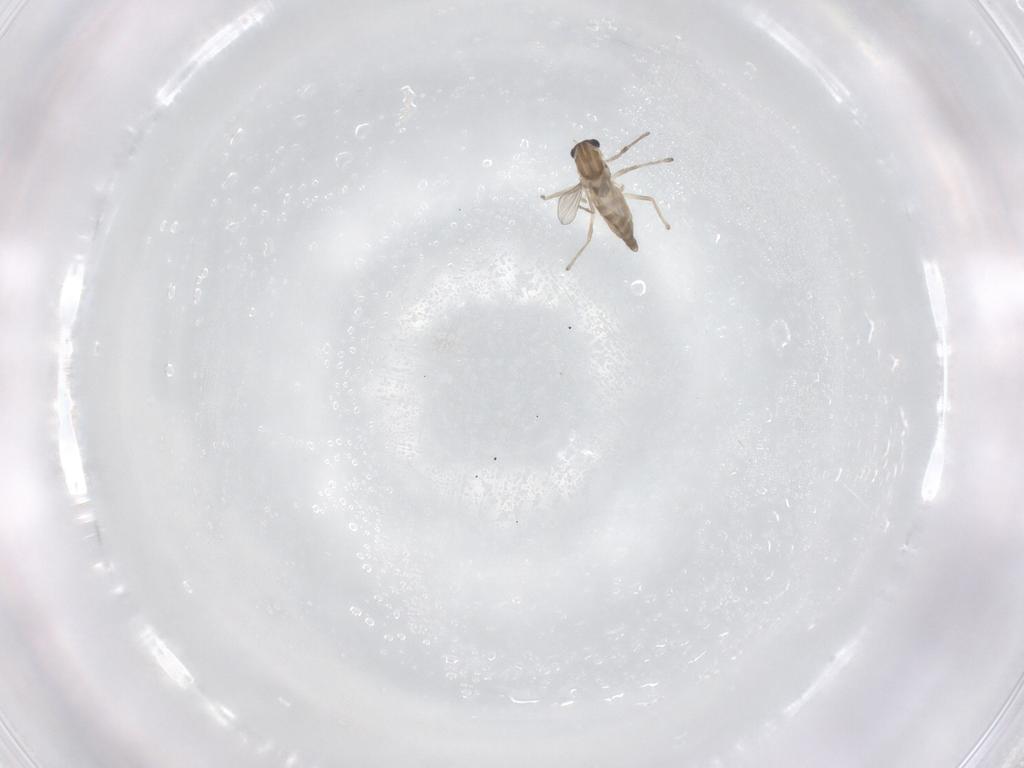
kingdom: Animalia
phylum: Arthropoda
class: Insecta
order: Diptera
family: Chironomidae
